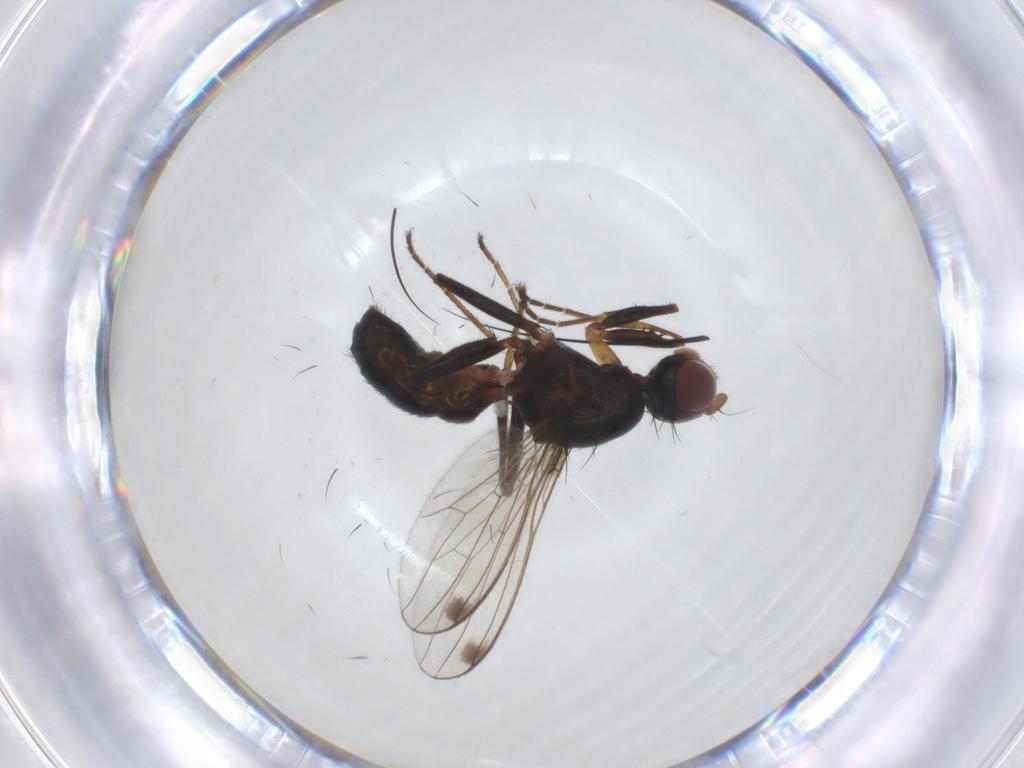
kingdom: Animalia
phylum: Arthropoda
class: Insecta
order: Diptera
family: Sepsidae
